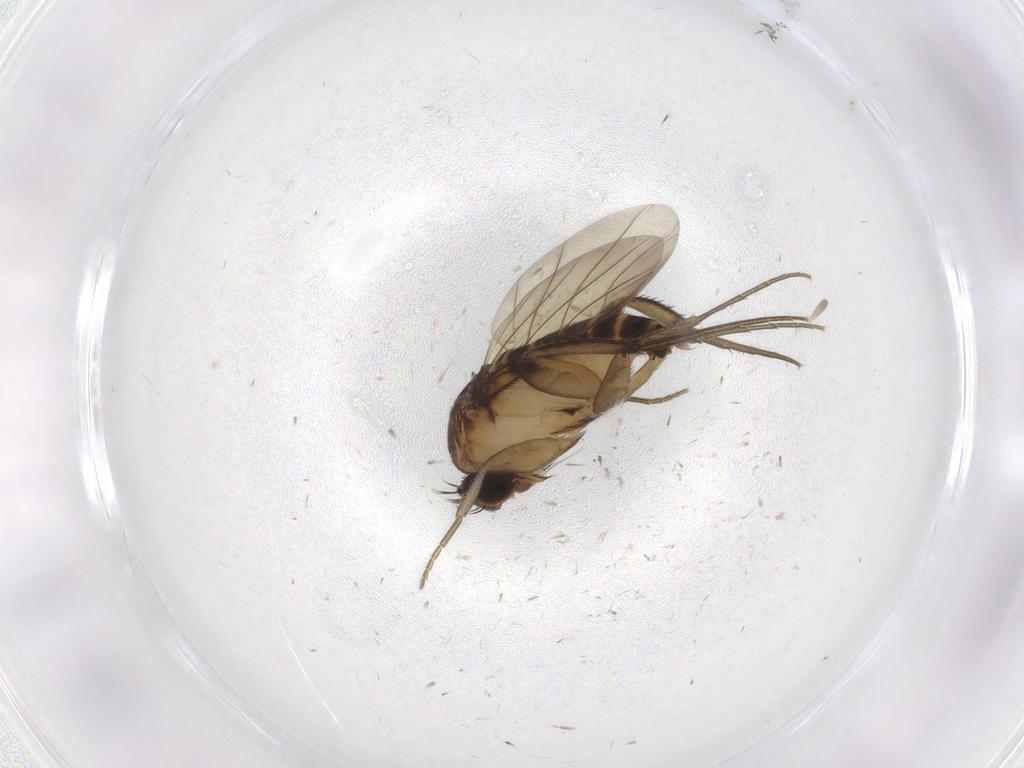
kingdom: Animalia
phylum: Arthropoda
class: Insecta
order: Diptera
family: Phoridae
